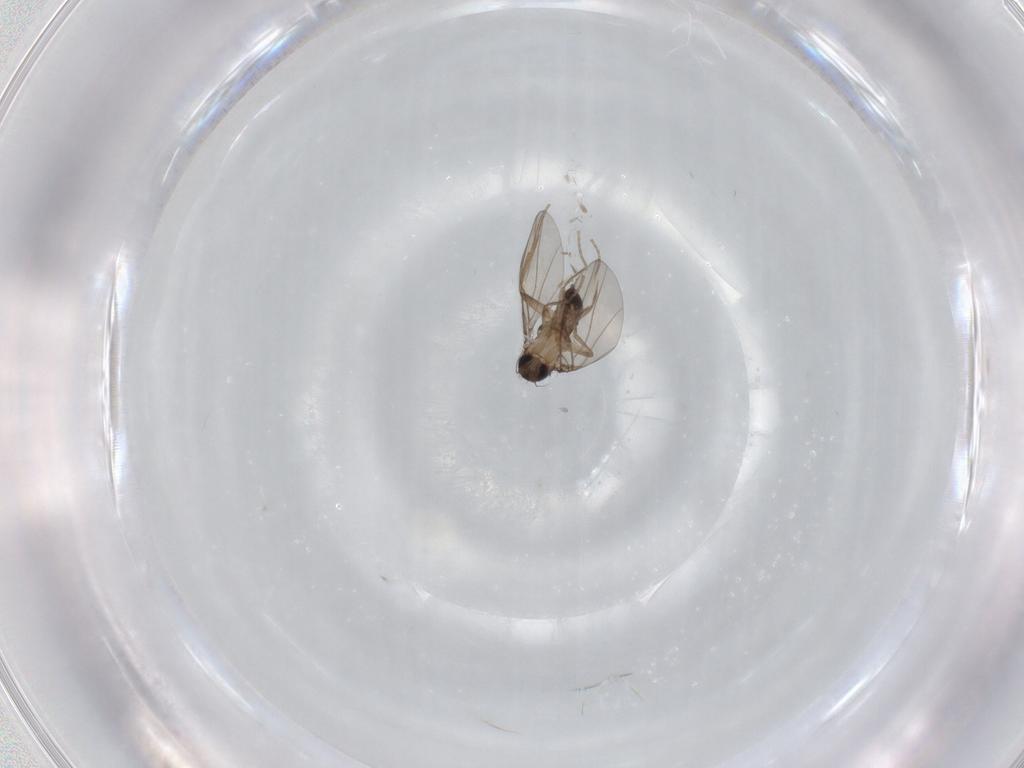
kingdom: Animalia
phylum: Arthropoda
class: Insecta
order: Diptera
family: Phoridae
